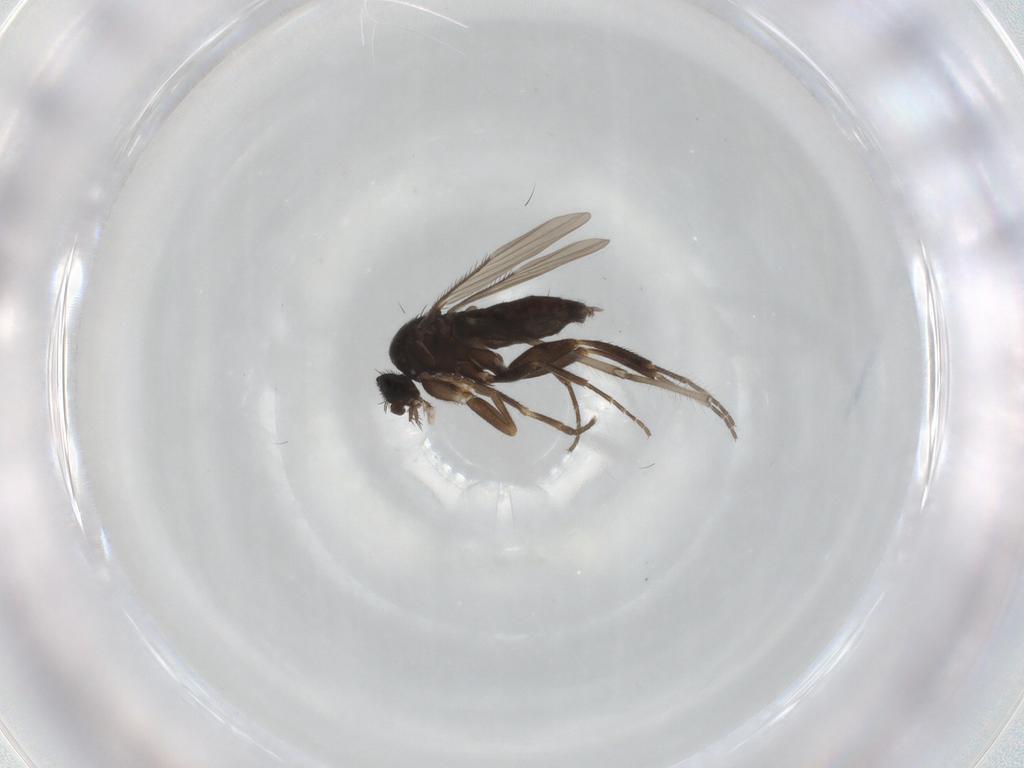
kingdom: Animalia
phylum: Arthropoda
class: Insecta
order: Diptera
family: Phoridae
